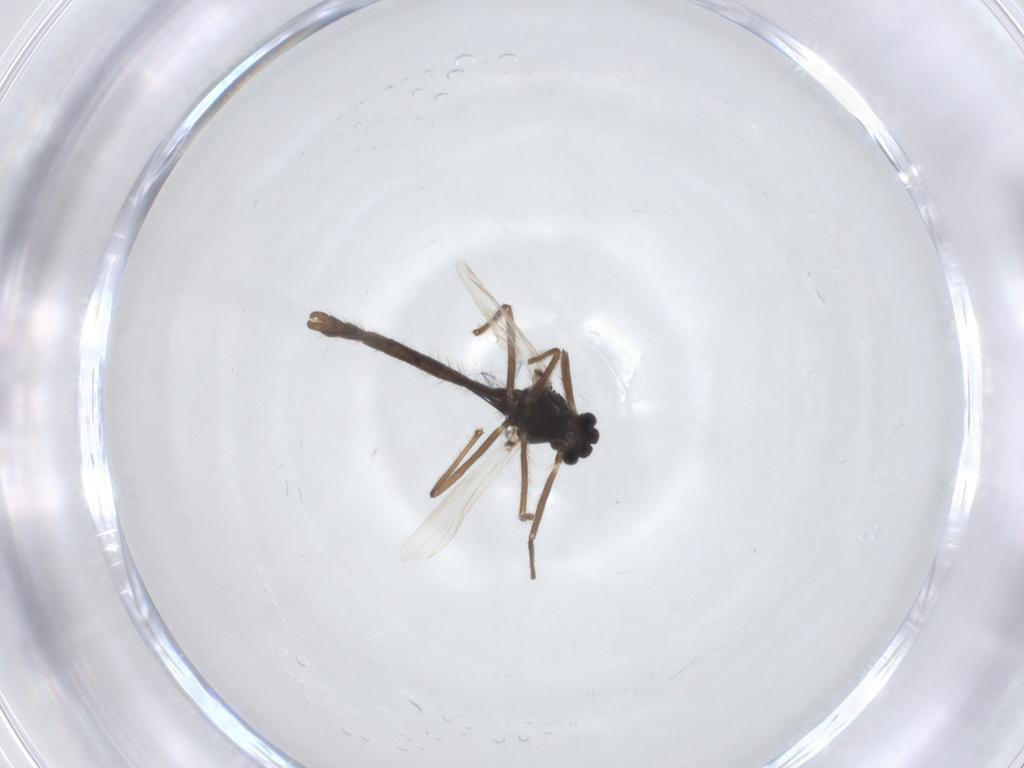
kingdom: Animalia
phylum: Arthropoda
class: Insecta
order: Diptera
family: Chironomidae
